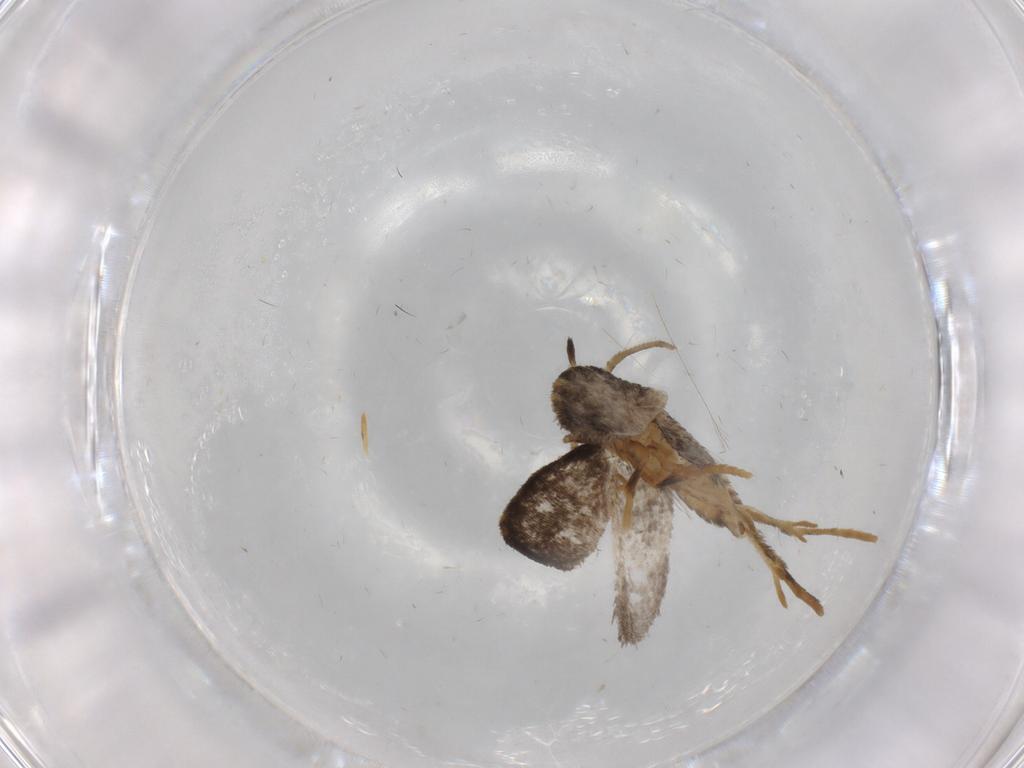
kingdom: Animalia
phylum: Arthropoda
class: Insecta
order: Lepidoptera
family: Psychidae
